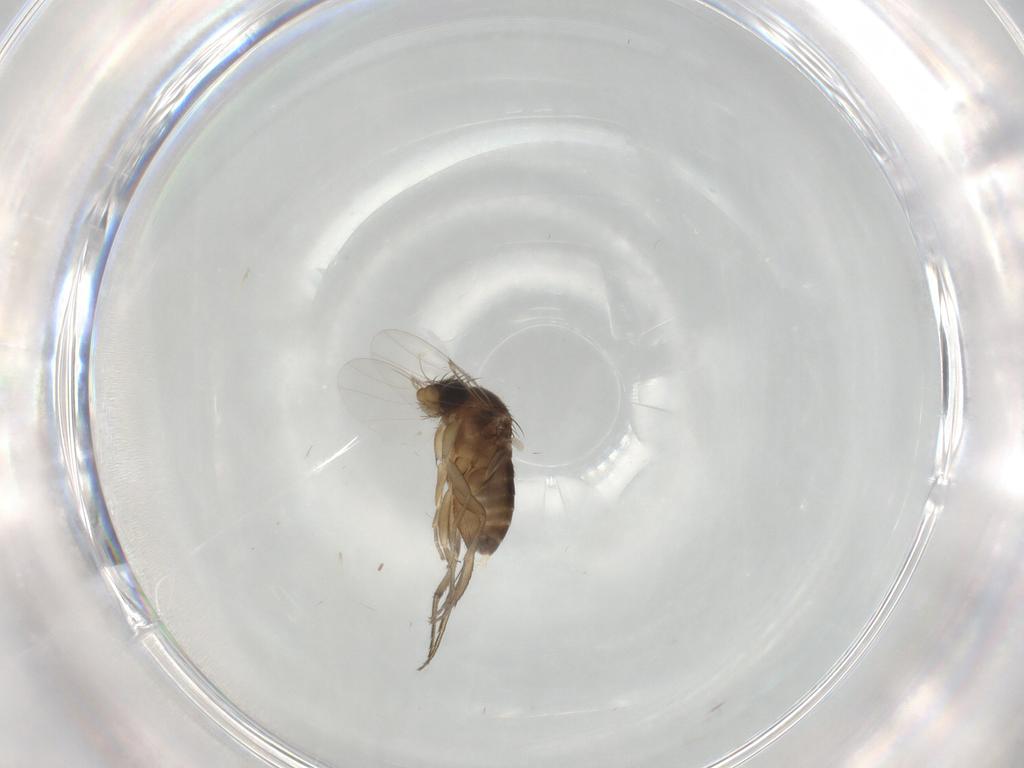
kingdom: Animalia
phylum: Arthropoda
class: Insecta
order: Diptera
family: Phoridae
